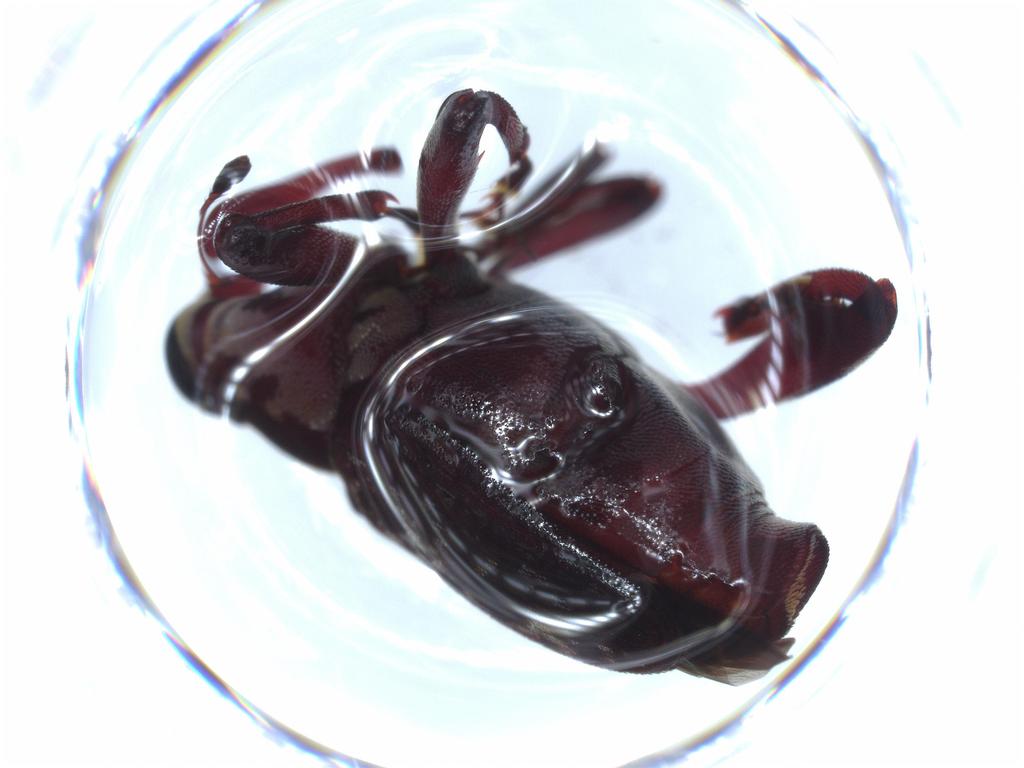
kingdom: Animalia
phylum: Arthropoda
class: Insecta
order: Coleoptera
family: Brentidae
